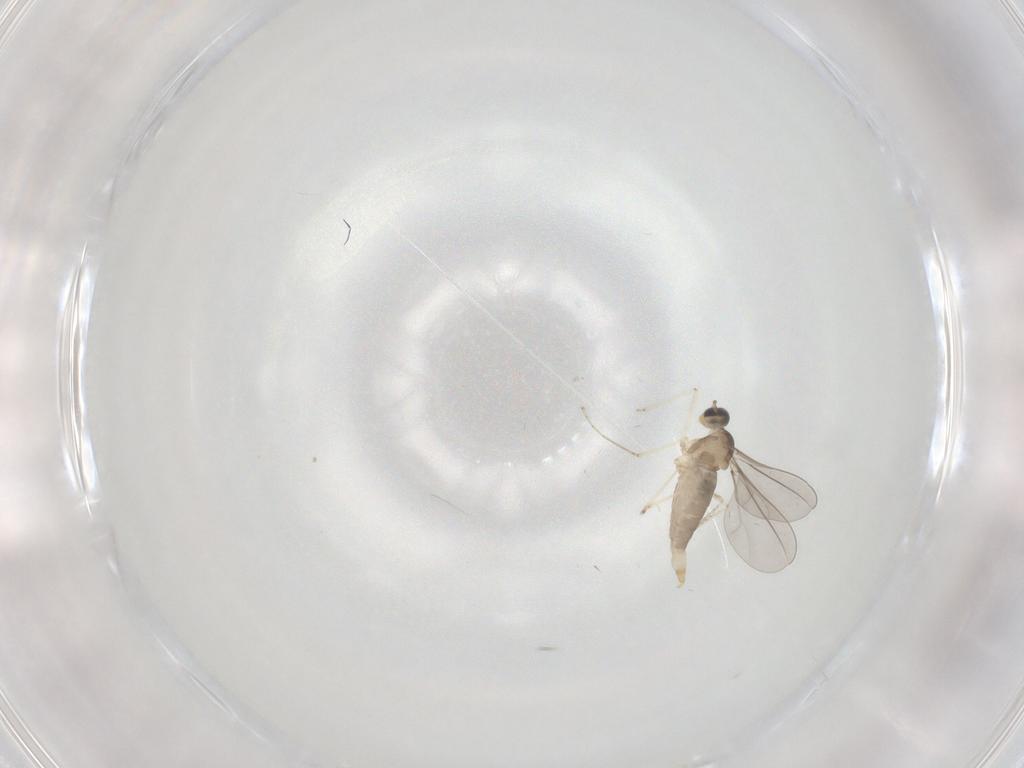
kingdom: Animalia
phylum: Arthropoda
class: Insecta
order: Diptera
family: Cecidomyiidae
